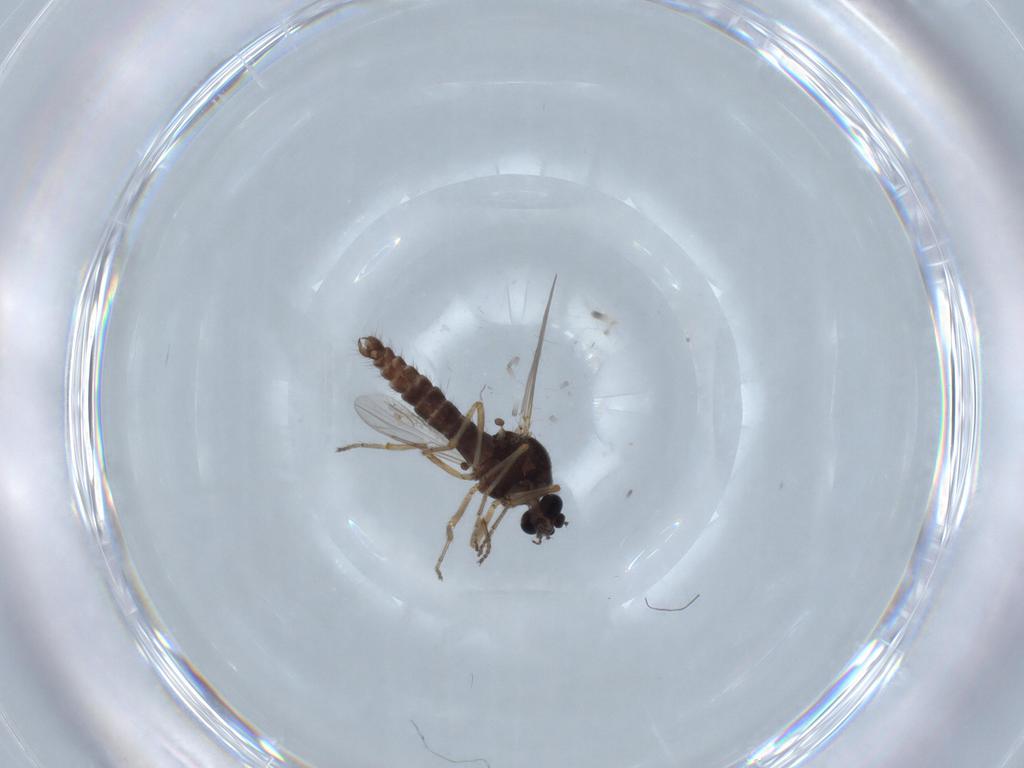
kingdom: Animalia
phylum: Arthropoda
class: Insecta
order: Diptera
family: Ceratopogonidae
